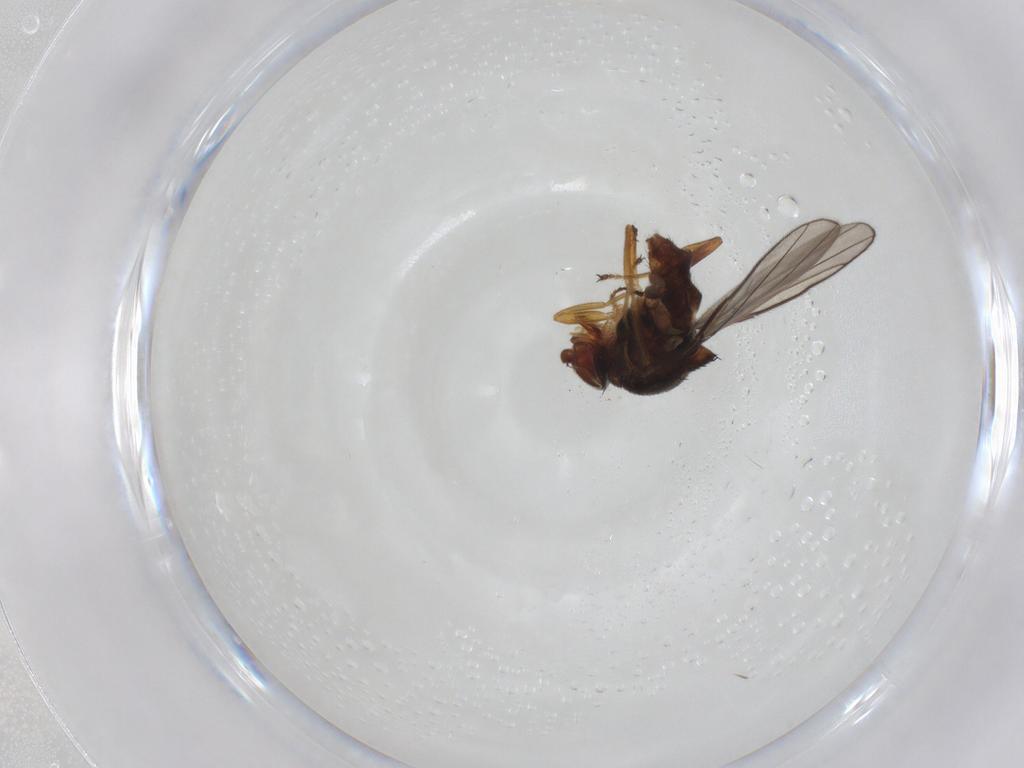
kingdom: Animalia
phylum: Arthropoda
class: Insecta
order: Diptera
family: Chloropidae
